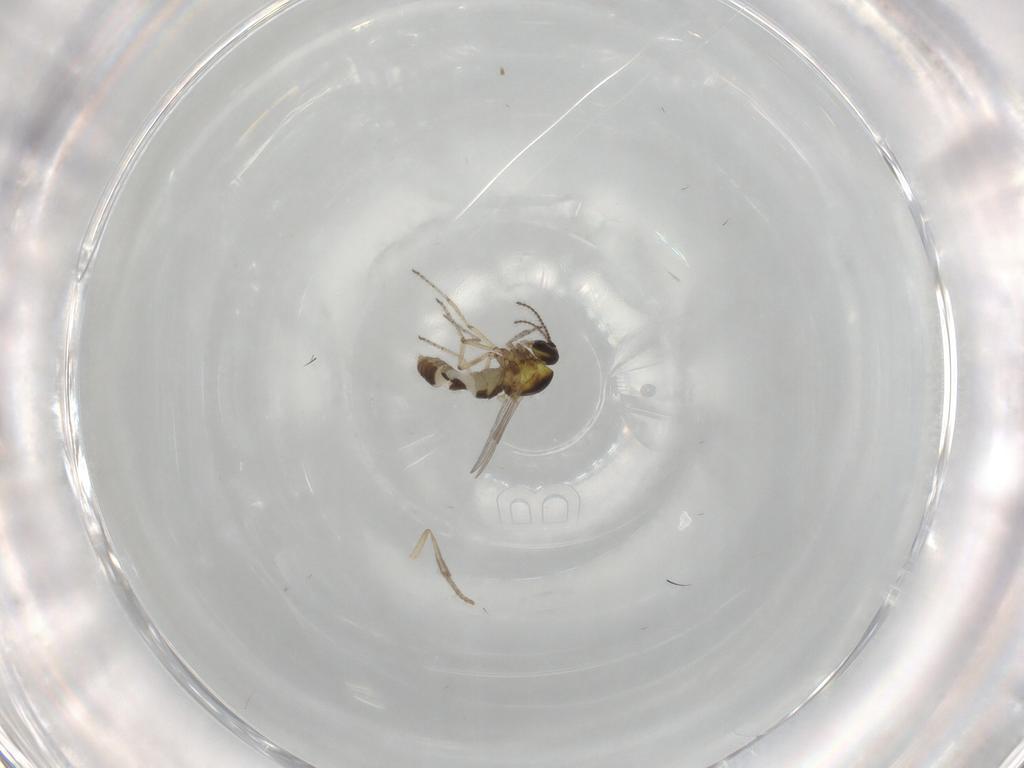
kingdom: Animalia
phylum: Arthropoda
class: Insecta
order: Diptera
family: Ceratopogonidae
